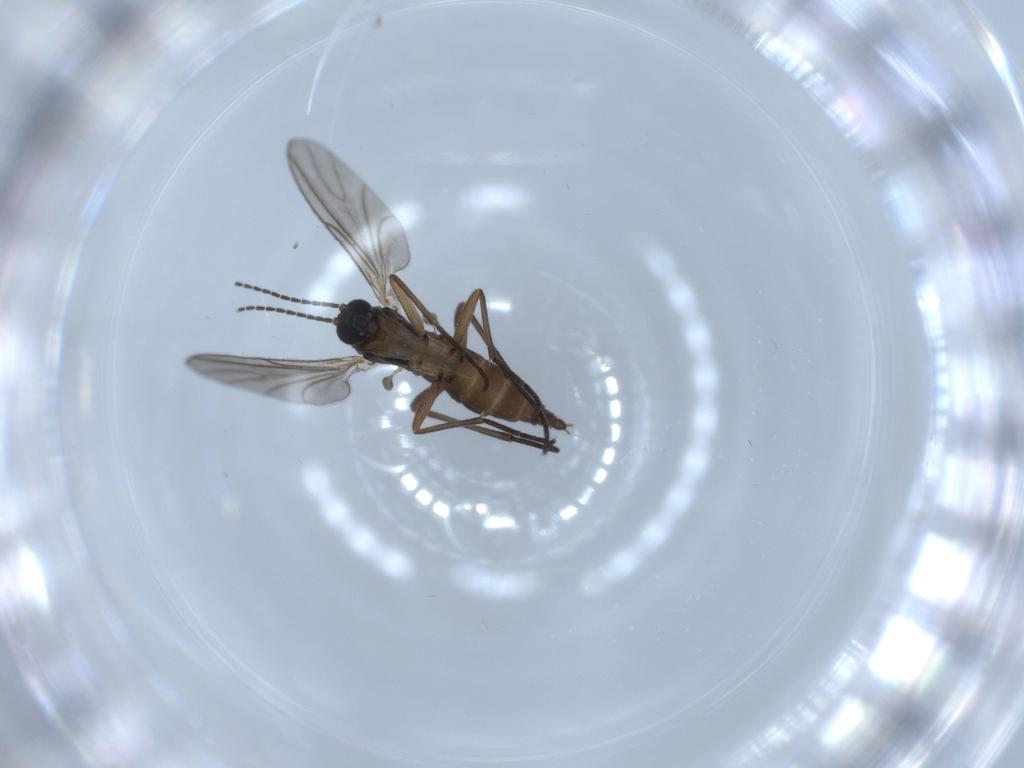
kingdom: Animalia
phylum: Arthropoda
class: Insecta
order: Diptera
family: Sciaridae
